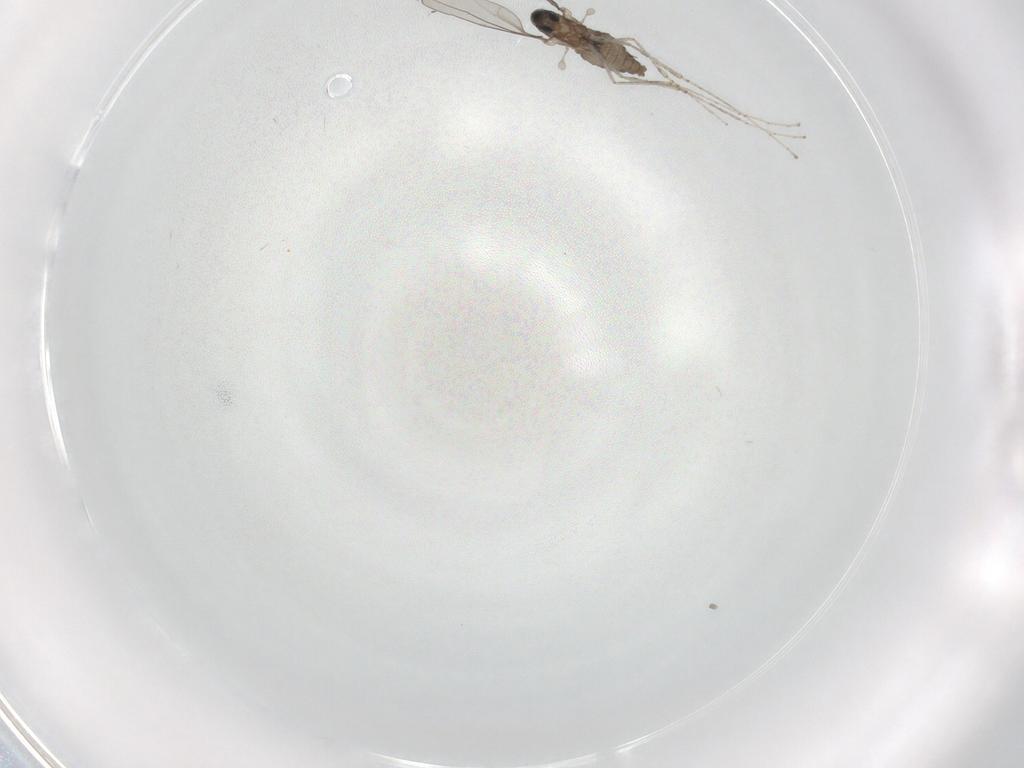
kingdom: Animalia
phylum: Arthropoda
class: Insecta
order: Diptera
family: Cecidomyiidae
